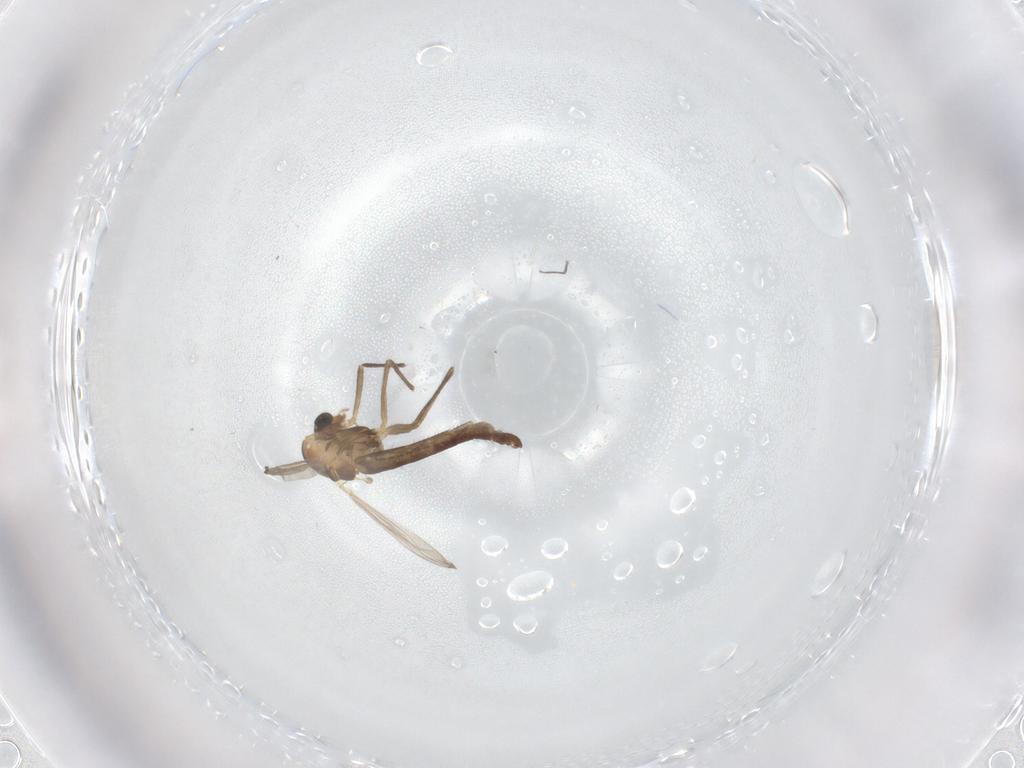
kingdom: Animalia
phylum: Arthropoda
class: Insecta
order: Diptera
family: Chironomidae
